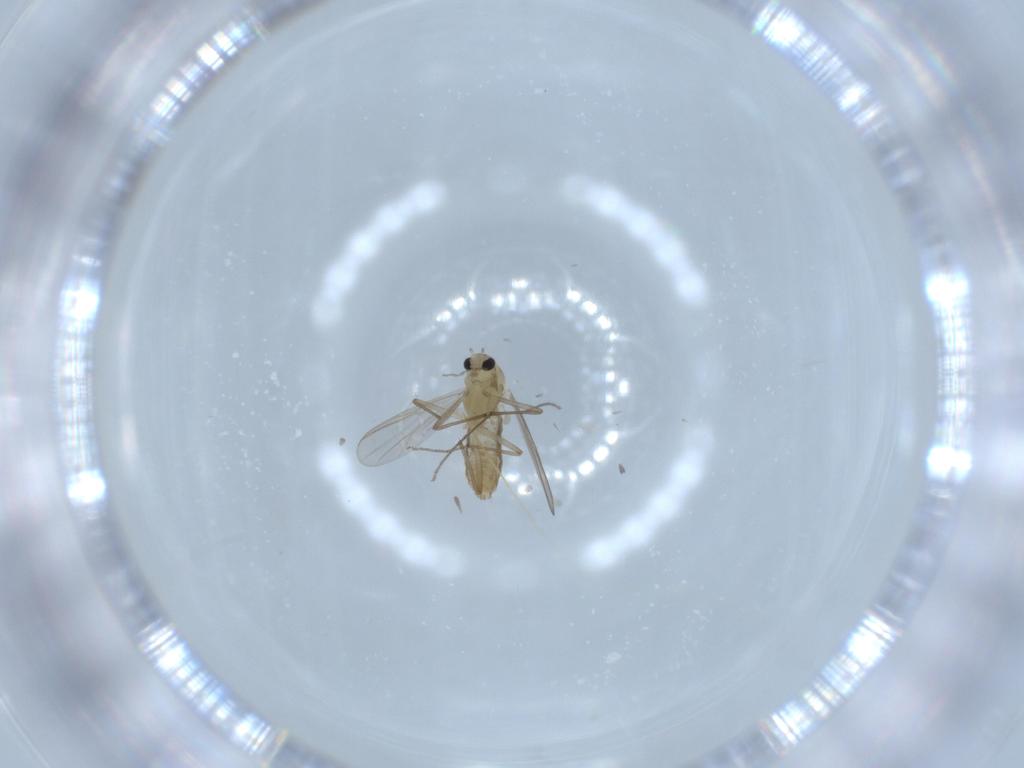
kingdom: Animalia
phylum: Arthropoda
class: Insecta
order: Diptera
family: Chironomidae
